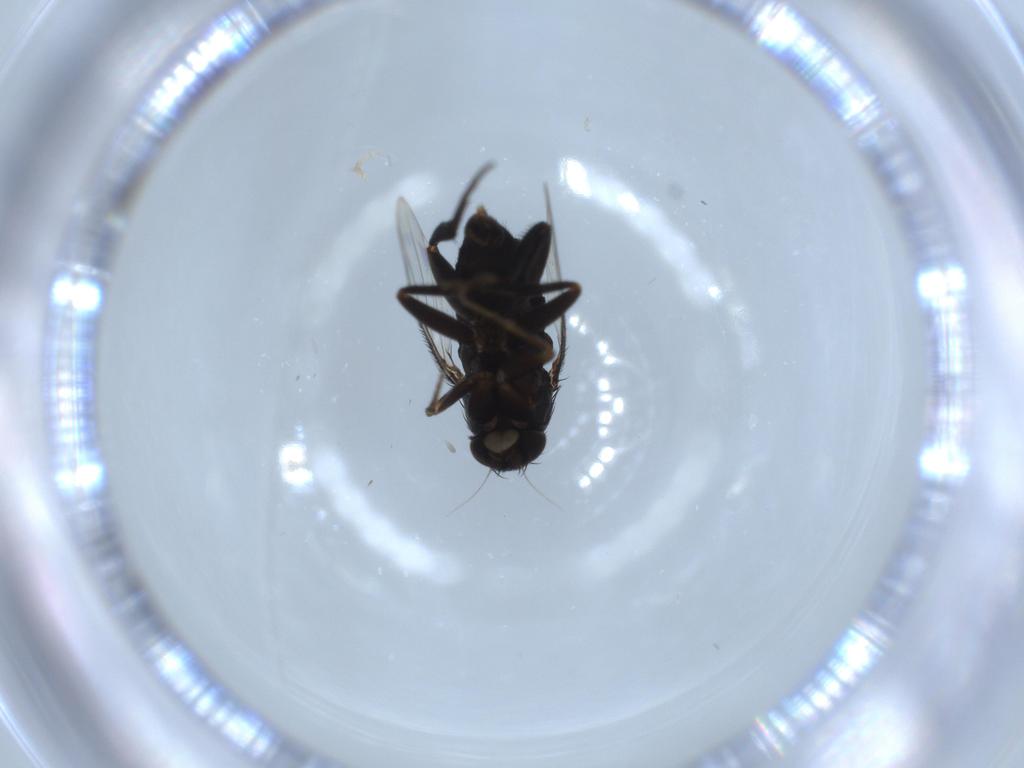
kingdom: Animalia
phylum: Arthropoda
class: Insecta
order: Diptera
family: Phoridae
